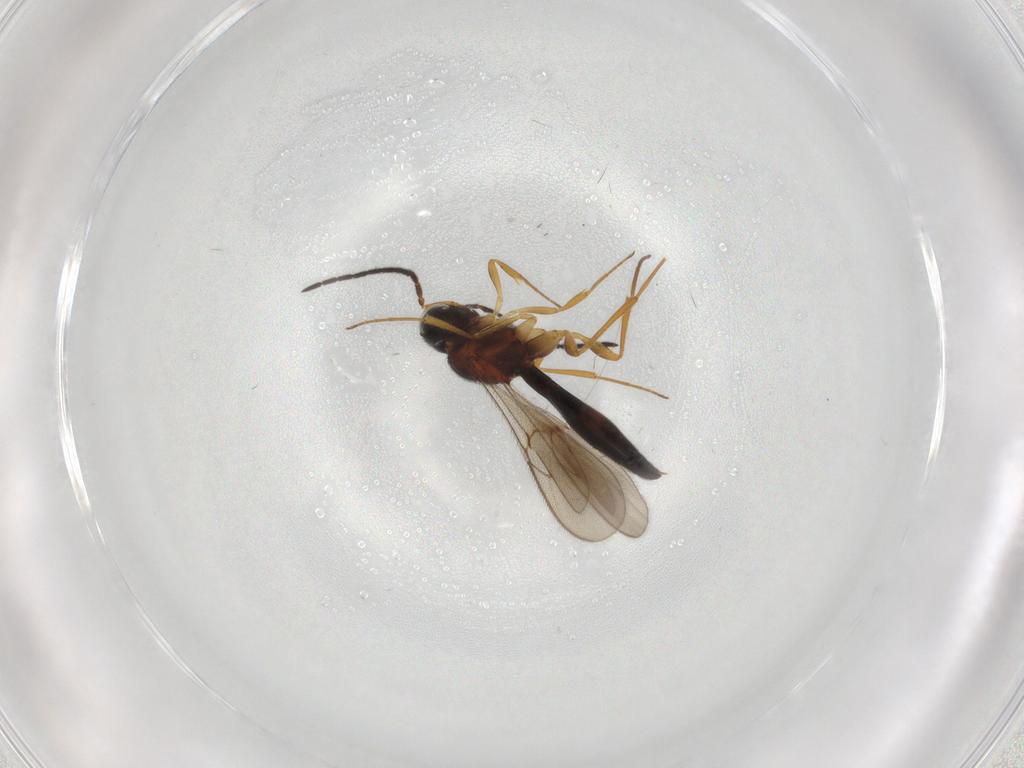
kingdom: Animalia
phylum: Arthropoda
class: Insecta
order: Hymenoptera
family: Scelionidae
